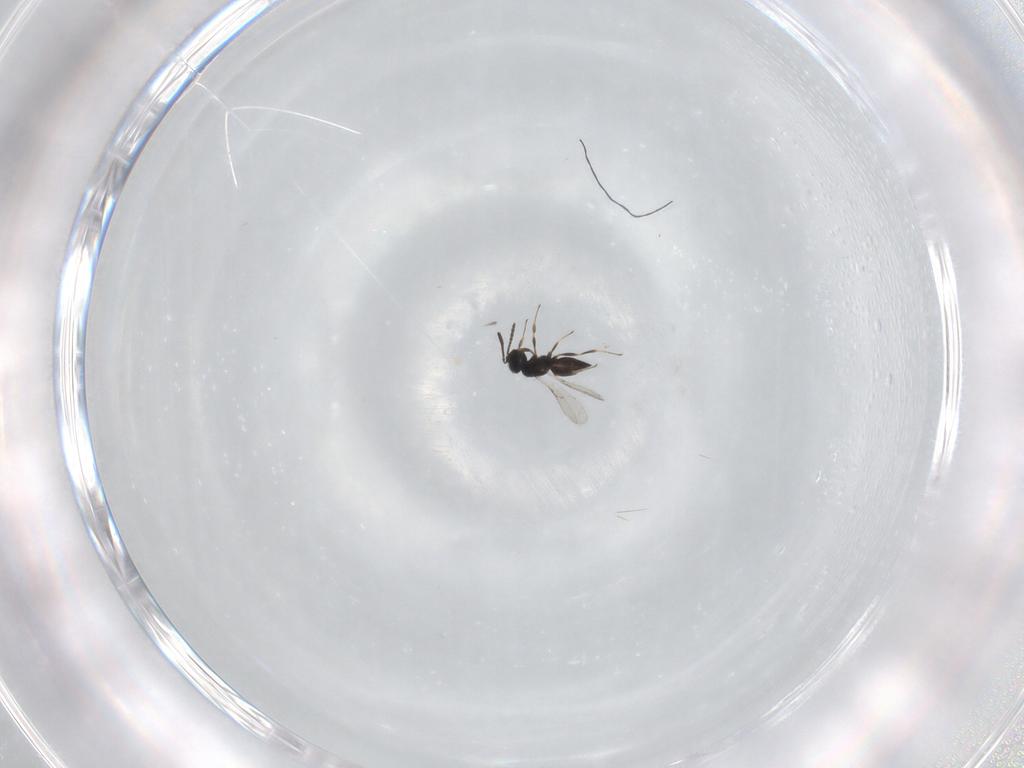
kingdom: Animalia
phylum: Arthropoda
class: Insecta
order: Hymenoptera
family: Scelionidae
